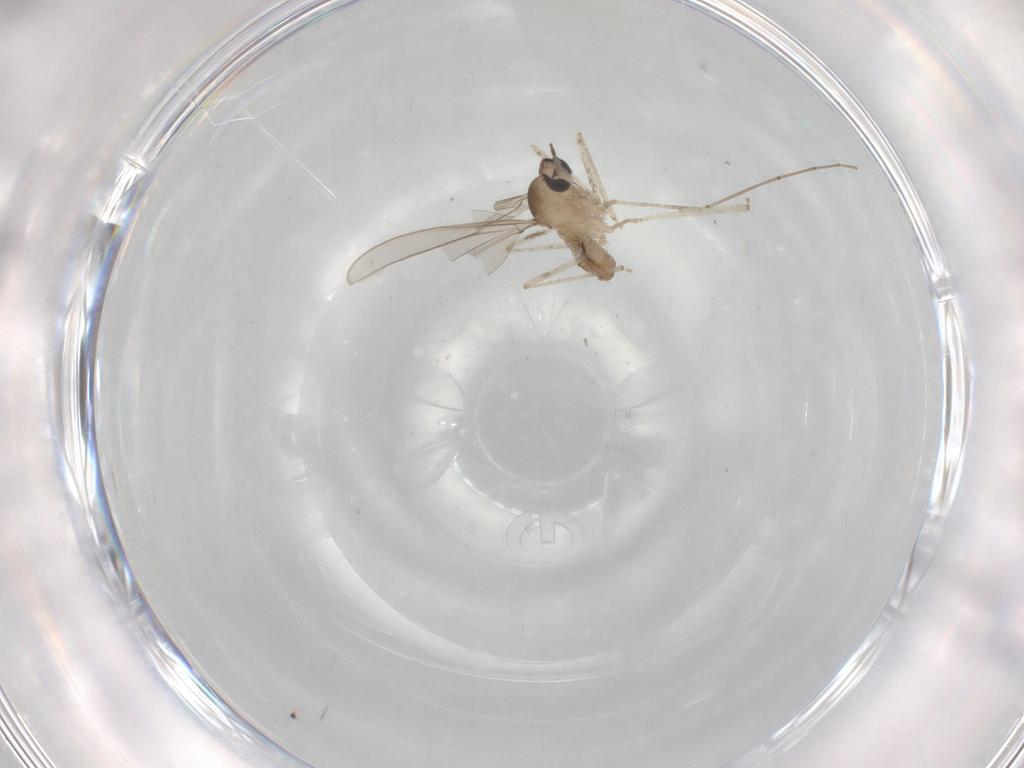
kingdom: Animalia
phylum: Arthropoda
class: Insecta
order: Diptera
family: Cecidomyiidae
